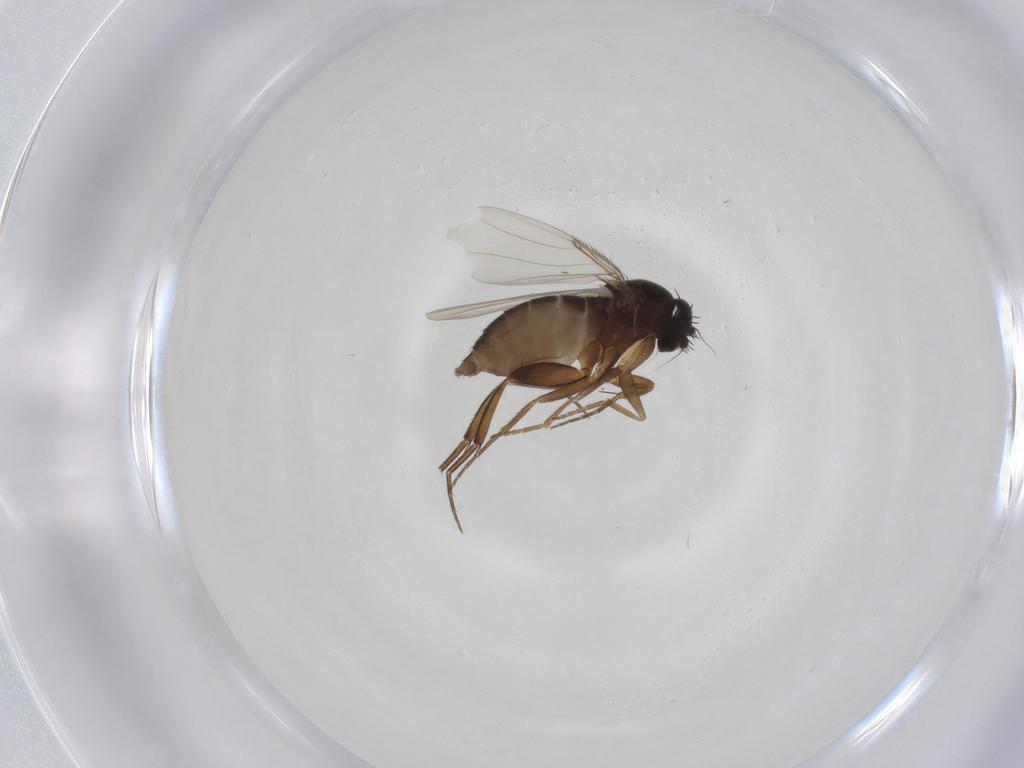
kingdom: Animalia
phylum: Arthropoda
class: Insecta
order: Diptera
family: Phoridae
